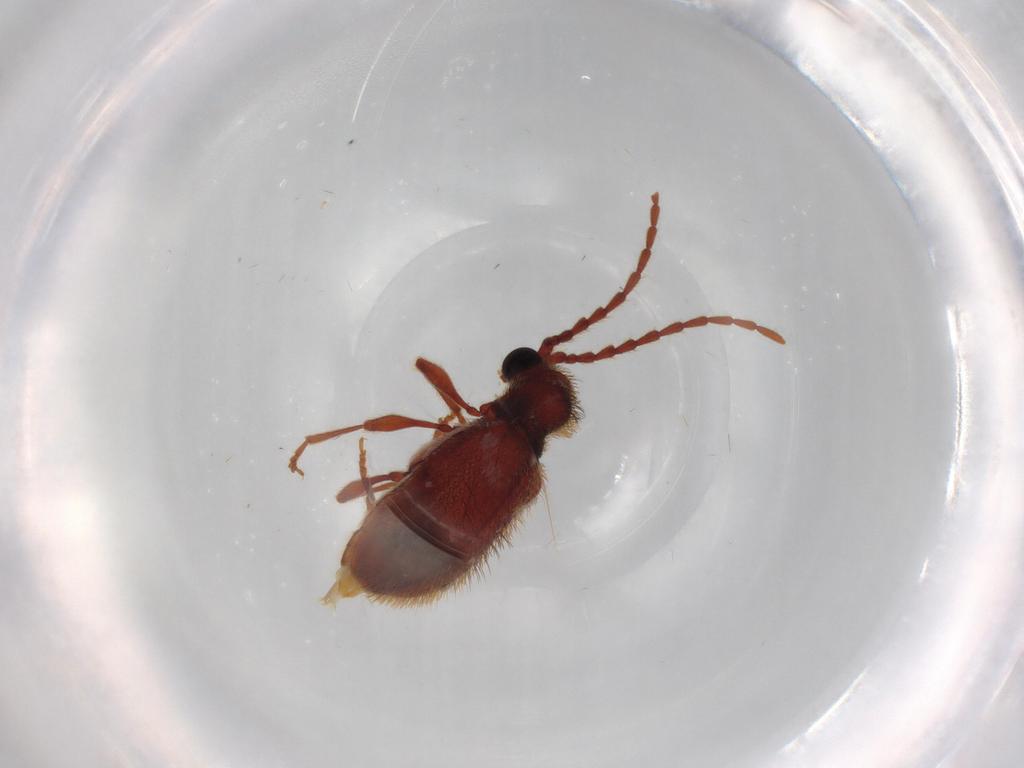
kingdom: Animalia
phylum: Arthropoda
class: Insecta
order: Coleoptera
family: Ptinidae
